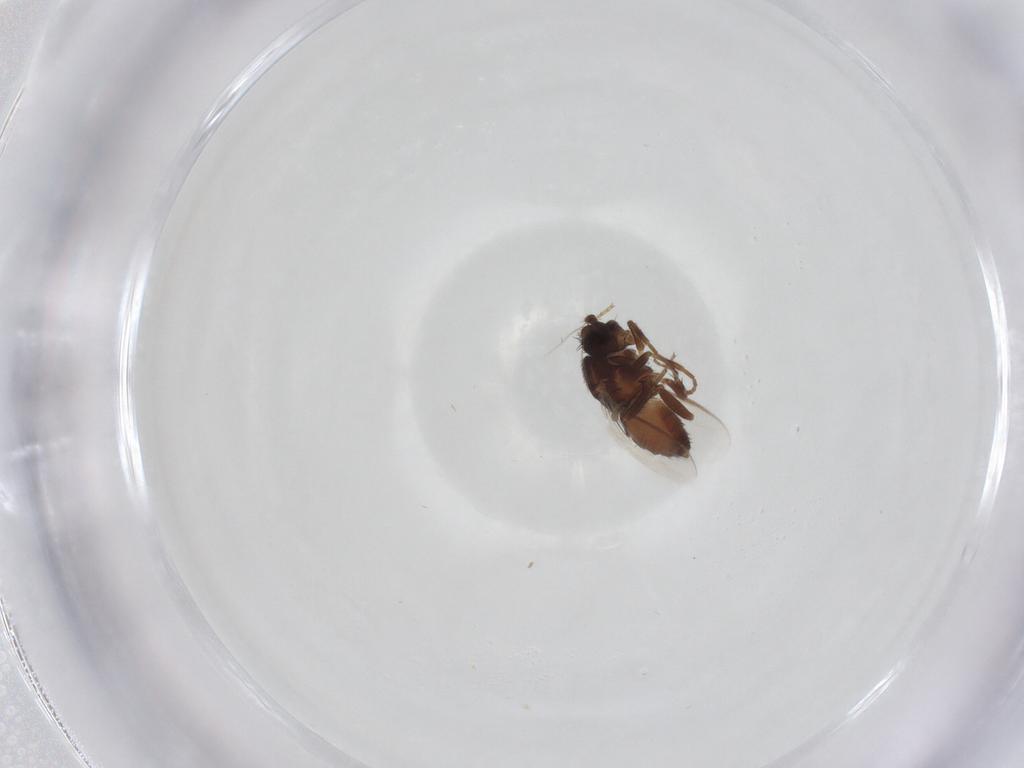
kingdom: Animalia
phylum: Arthropoda
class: Insecta
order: Diptera
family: Sphaeroceridae
